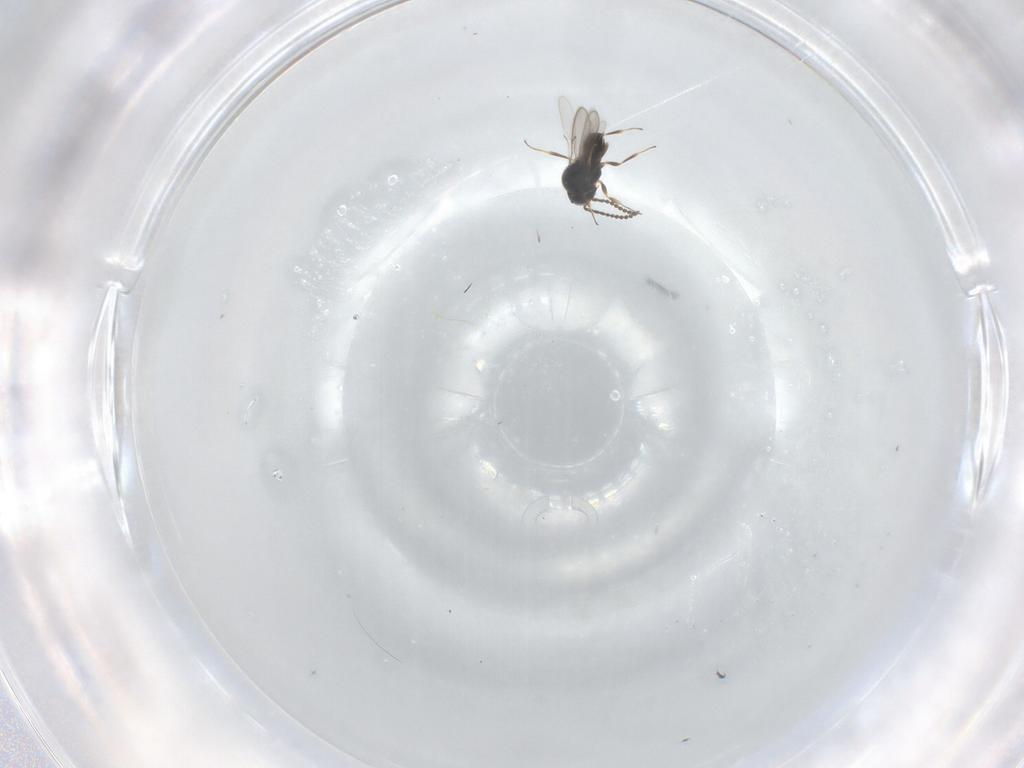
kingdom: Animalia
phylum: Arthropoda
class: Insecta
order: Hymenoptera
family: Scelionidae
